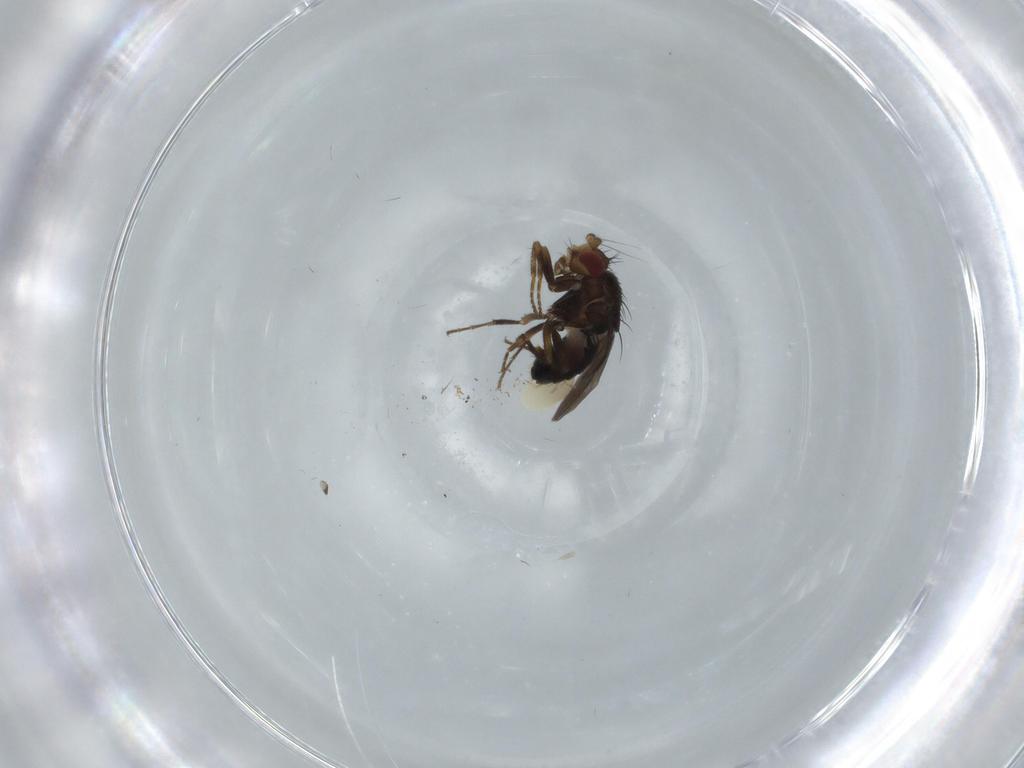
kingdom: Animalia
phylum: Arthropoda
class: Insecta
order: Diptera
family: Sphaeroceridae
